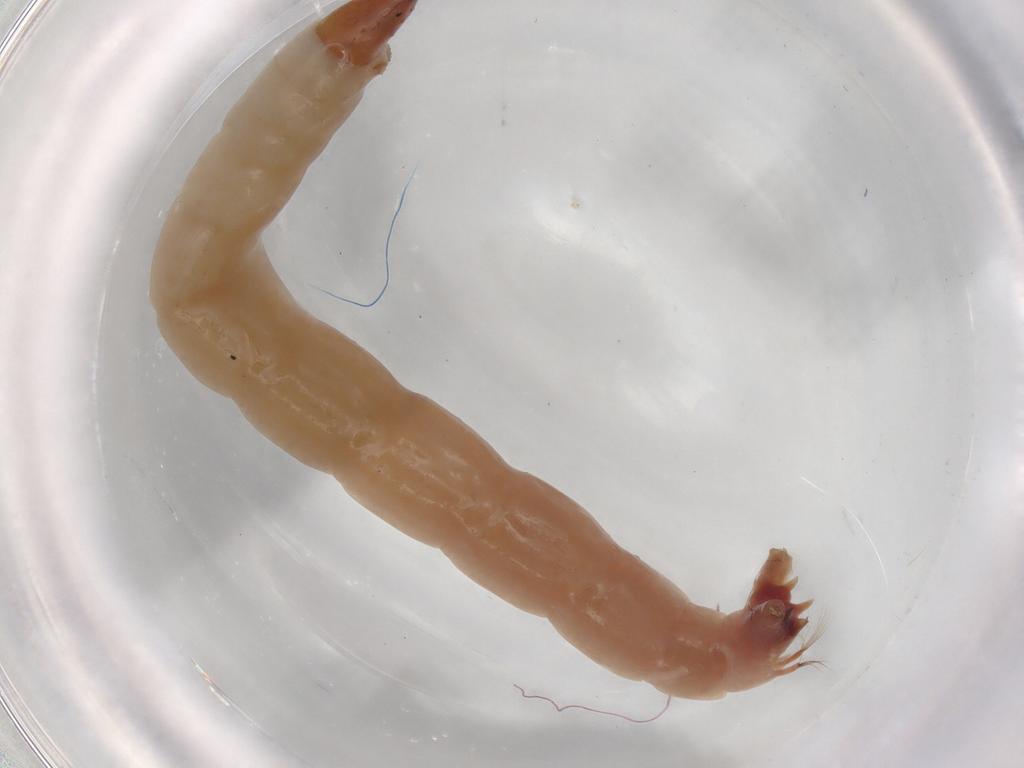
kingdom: Animalia
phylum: Arthropoda
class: Insecta
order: Diptera
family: Chironomidae
